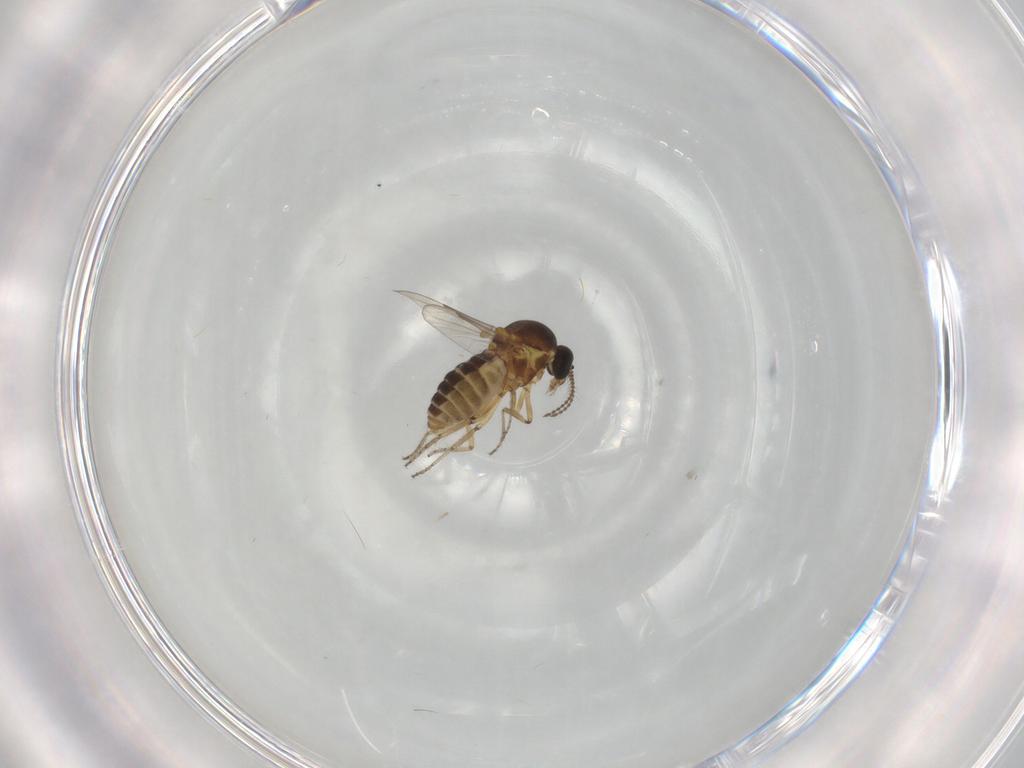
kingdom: Animalia
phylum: Arthropoda
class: Insecta
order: Diptera
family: Ceratopogonidae
